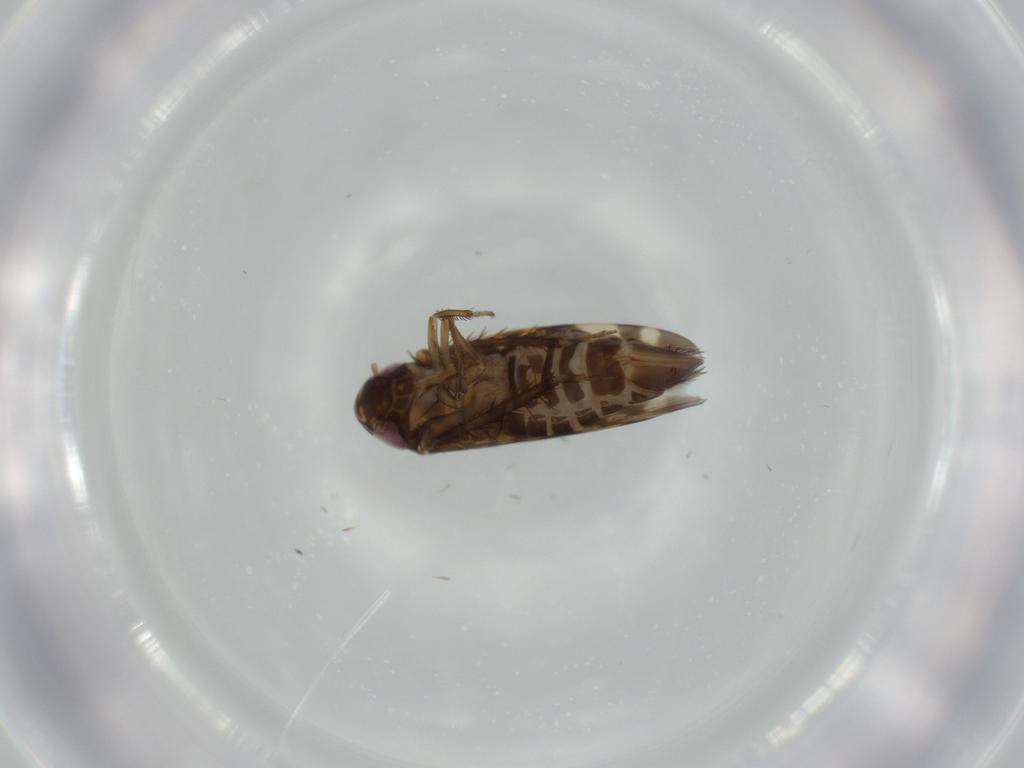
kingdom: Animalia
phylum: Arthropoda
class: Insecta
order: Hemiptera
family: Cicadellidae
